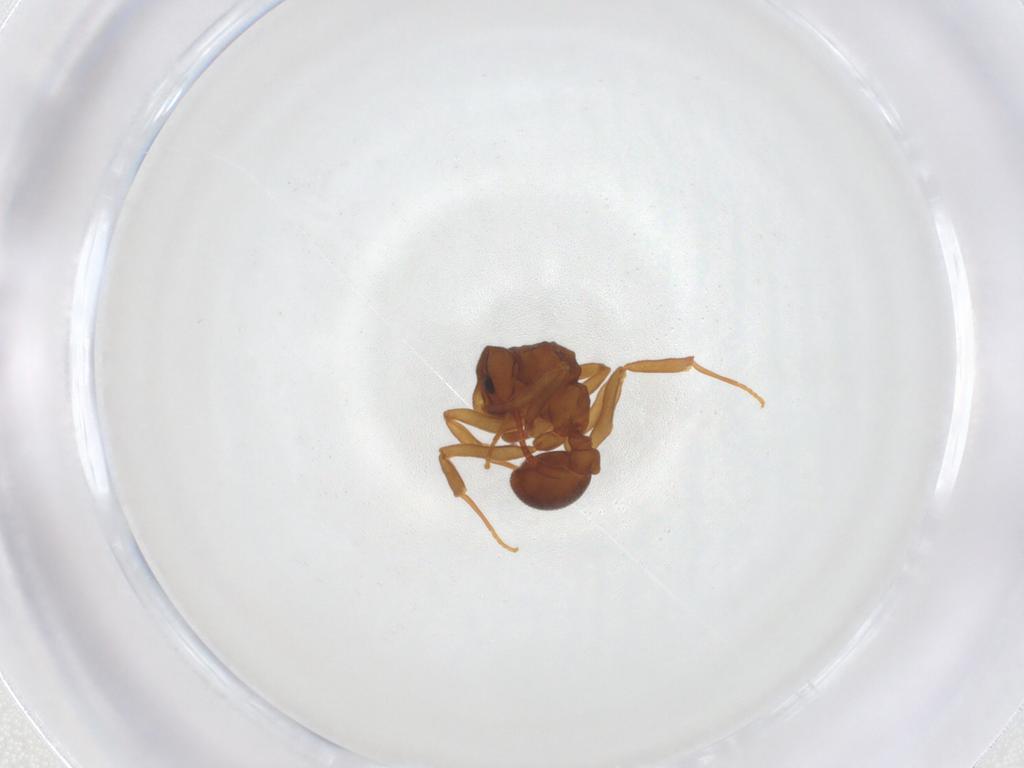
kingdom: Animalia
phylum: Arthropoda
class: Insecta
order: Hymenoptera
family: Formicidae
